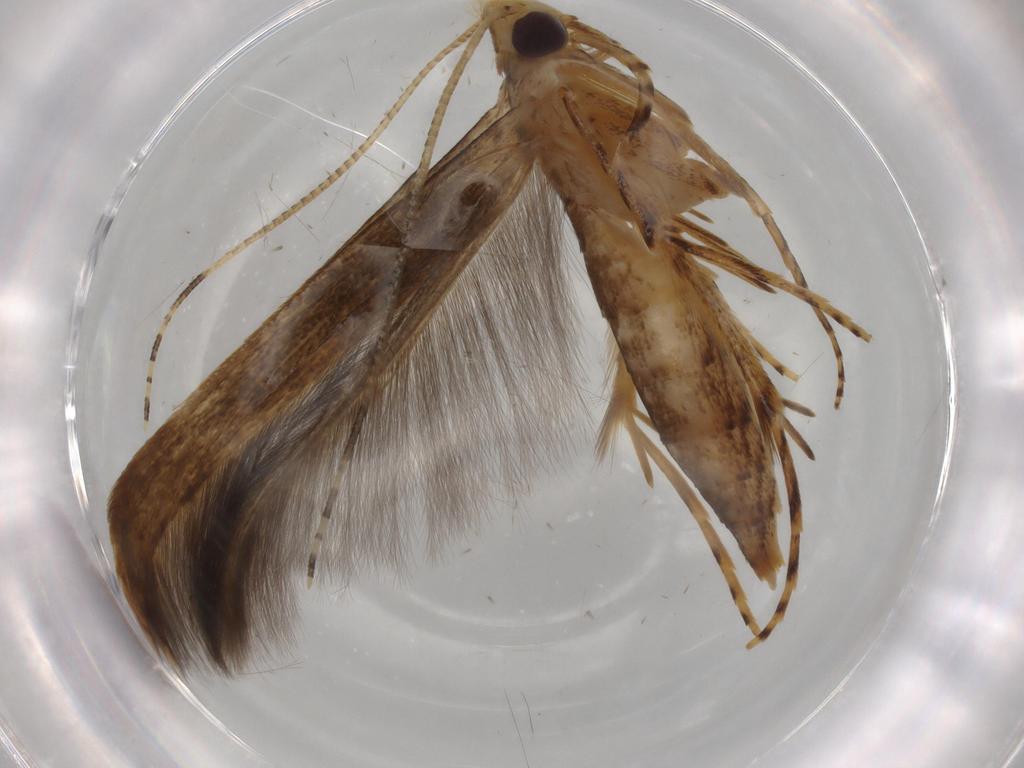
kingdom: Animalia
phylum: Arthropoda
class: Insecta
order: Lepidoptera
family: Batrachedridae
